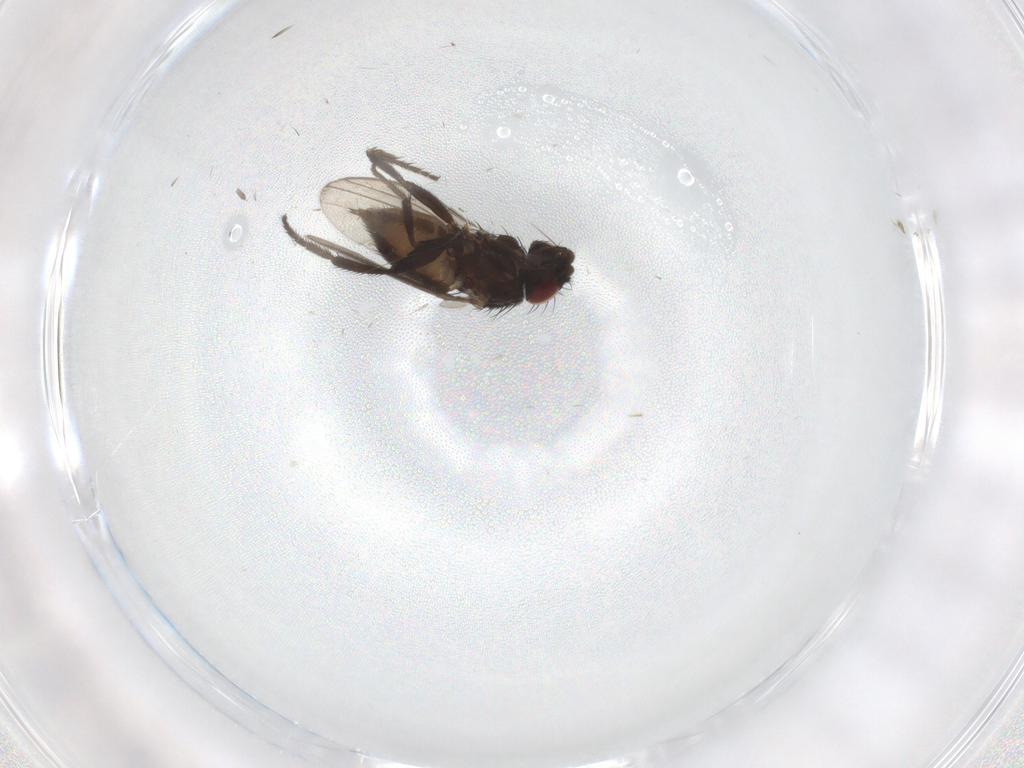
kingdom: Animalia
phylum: Arthropoda
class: Insecta
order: Diptera
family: Milichiidae
